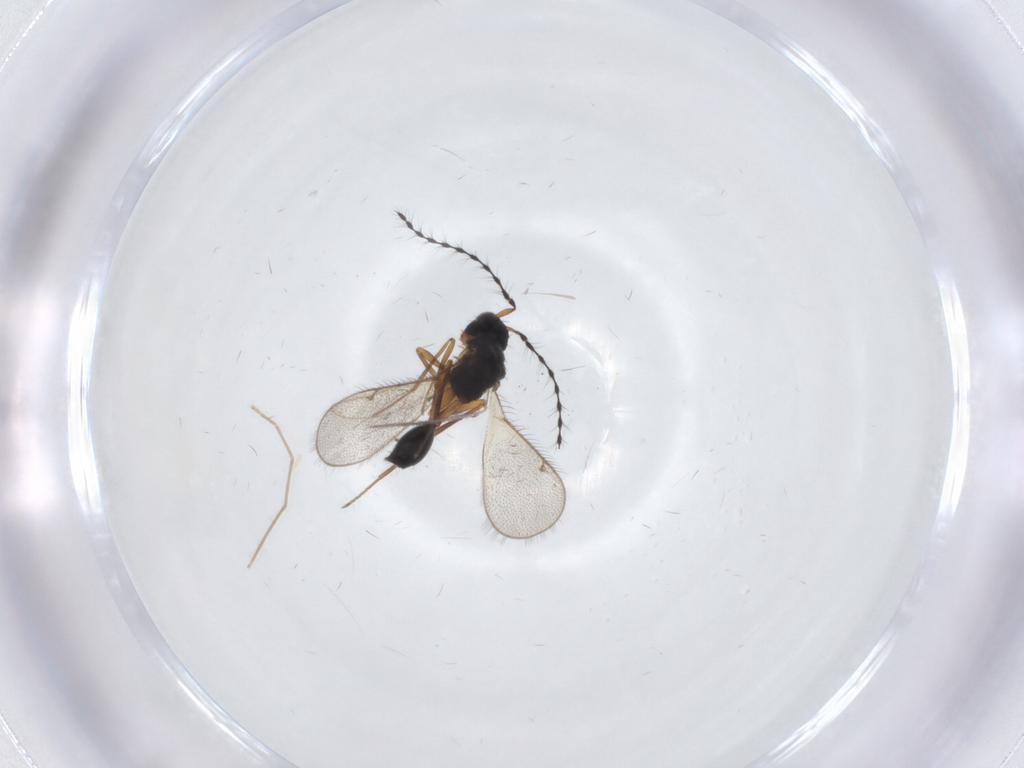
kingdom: Animalia
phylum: Arthropoda
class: Insecta
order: Hymenoptera
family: Diparidae
